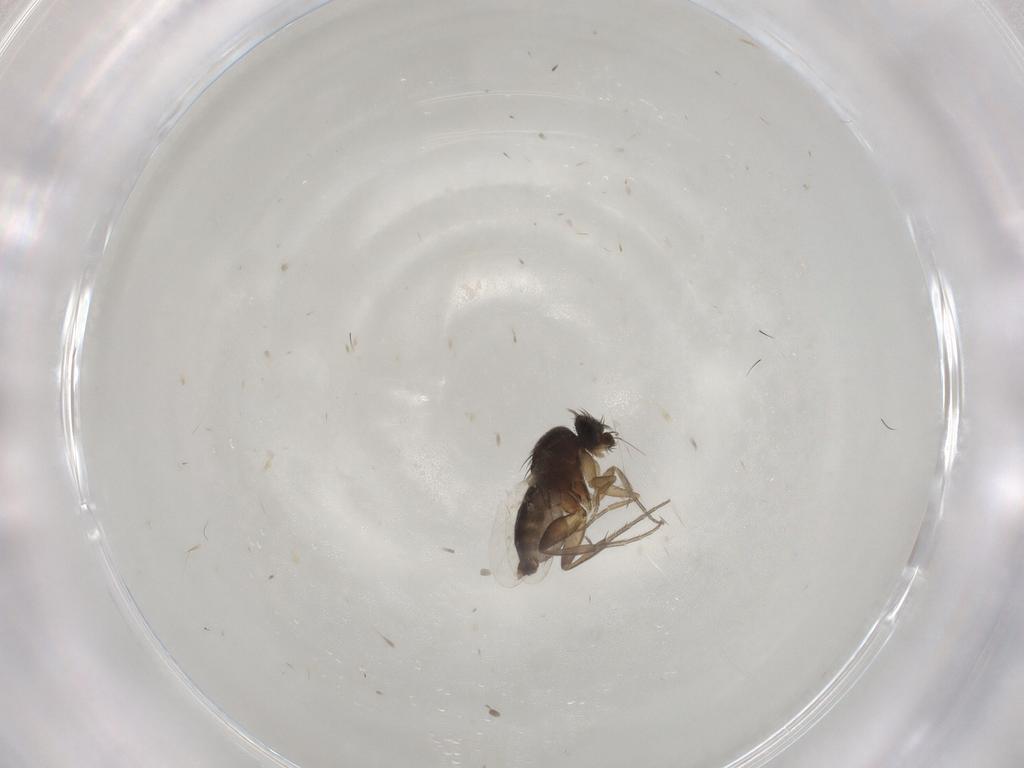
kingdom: Animalia
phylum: Arthropoda
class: Insecta
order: Diptera
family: Phoridae
